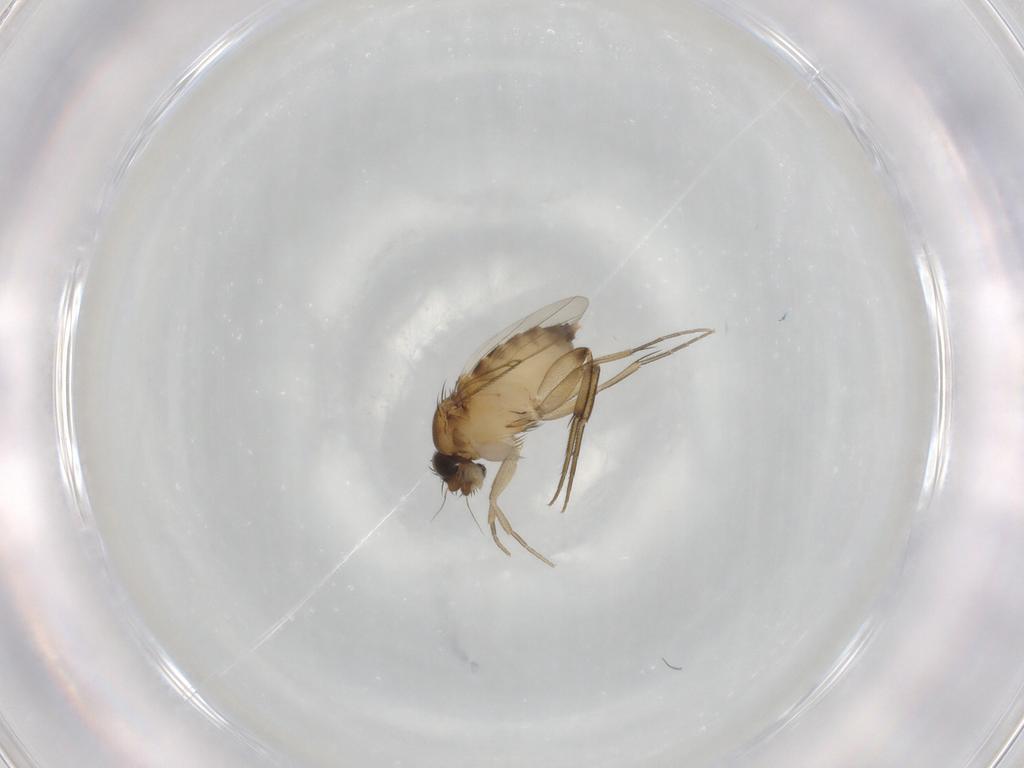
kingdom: Animalia
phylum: Arthropoda
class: Insecta
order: Diptera
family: Phoridae
